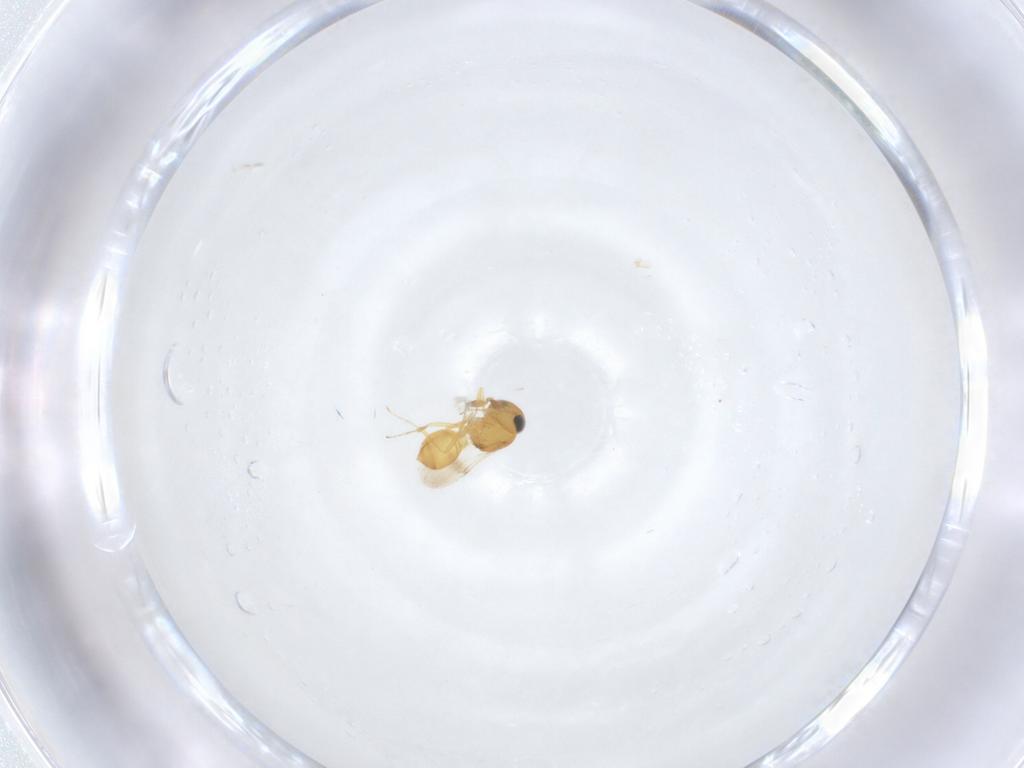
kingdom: Animalia
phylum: Arthropoda
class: Insecta
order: Hymenoptera
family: Scelionidae
